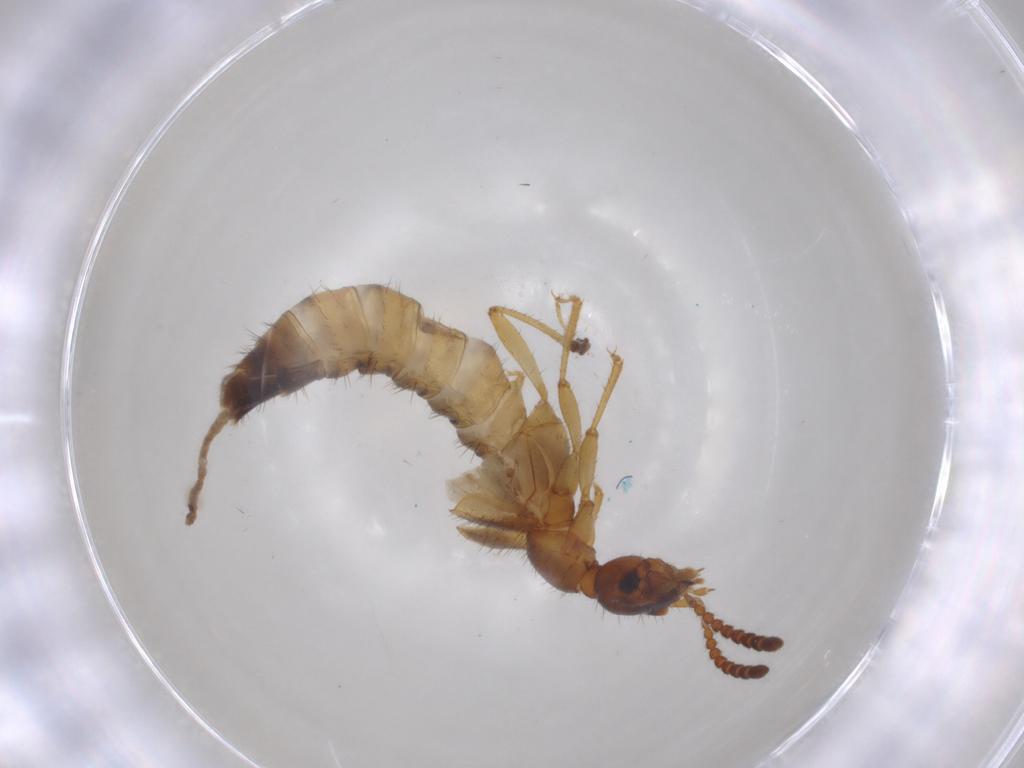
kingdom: Animalia
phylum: Arthropoda
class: Insecta
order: Coleoptera
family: Staphylinidae
